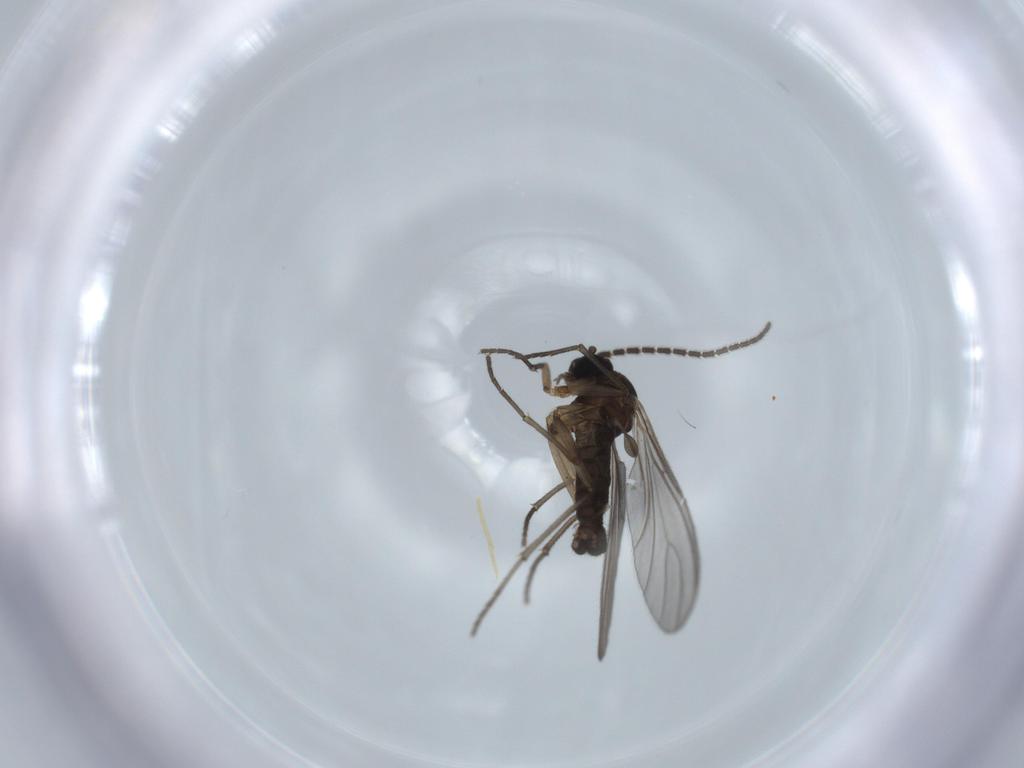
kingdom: Animalia
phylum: Arthropoda
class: Insecta
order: Diptera
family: Sciaridae
